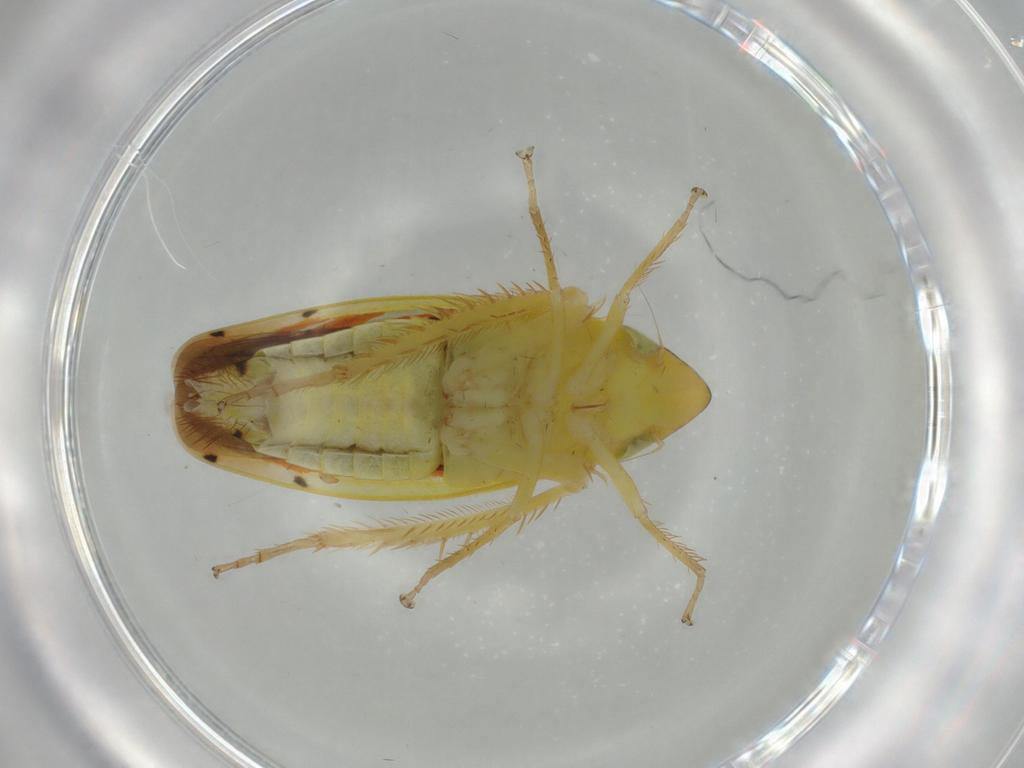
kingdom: Animalia
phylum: Arthropoda
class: Insecta
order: Hemiptera
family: Cicadellidae
